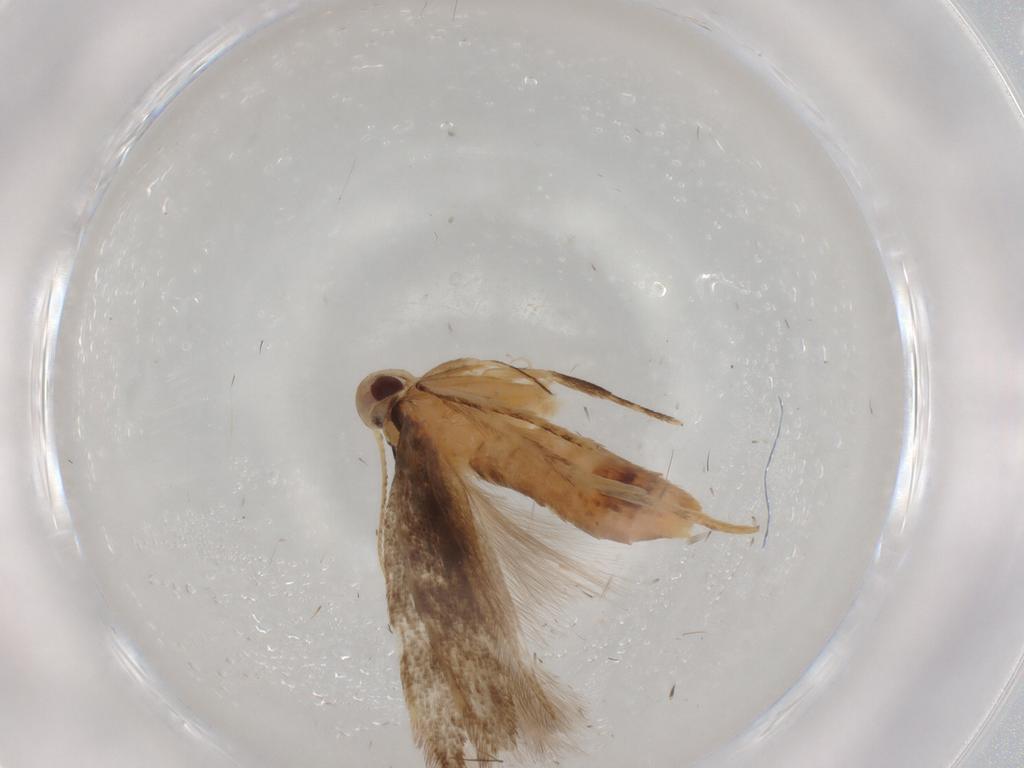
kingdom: Animalia
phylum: Arthropoda
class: Insecta
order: Lepidoptera
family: Cosmopterigidae
